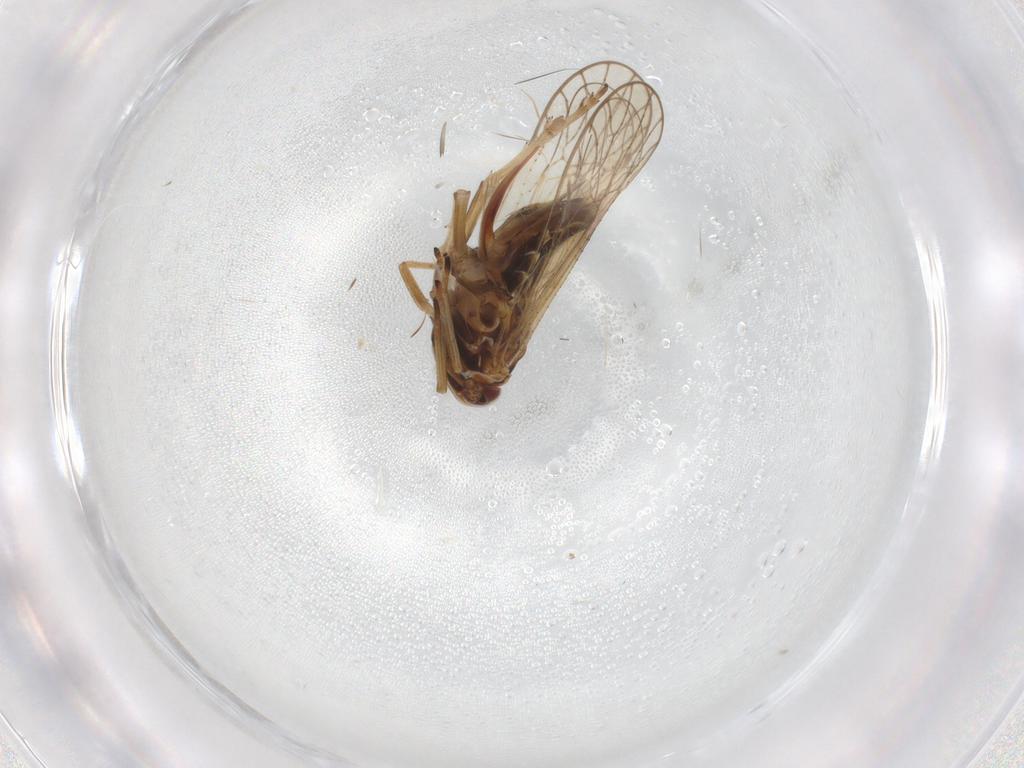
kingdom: Animalia
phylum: Arthropoda
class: Insecta
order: Hemiptera
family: Delphacidae
